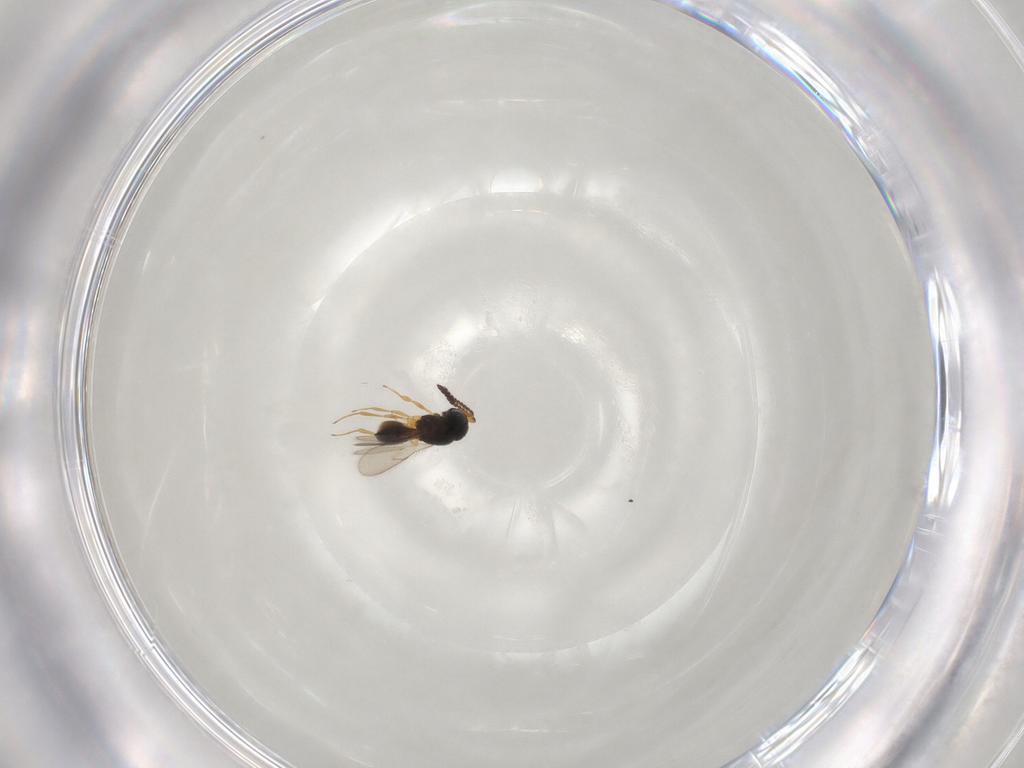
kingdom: Animalia
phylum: Arthropoda
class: Insecta
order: Hymenoptera
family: Scelionidae
